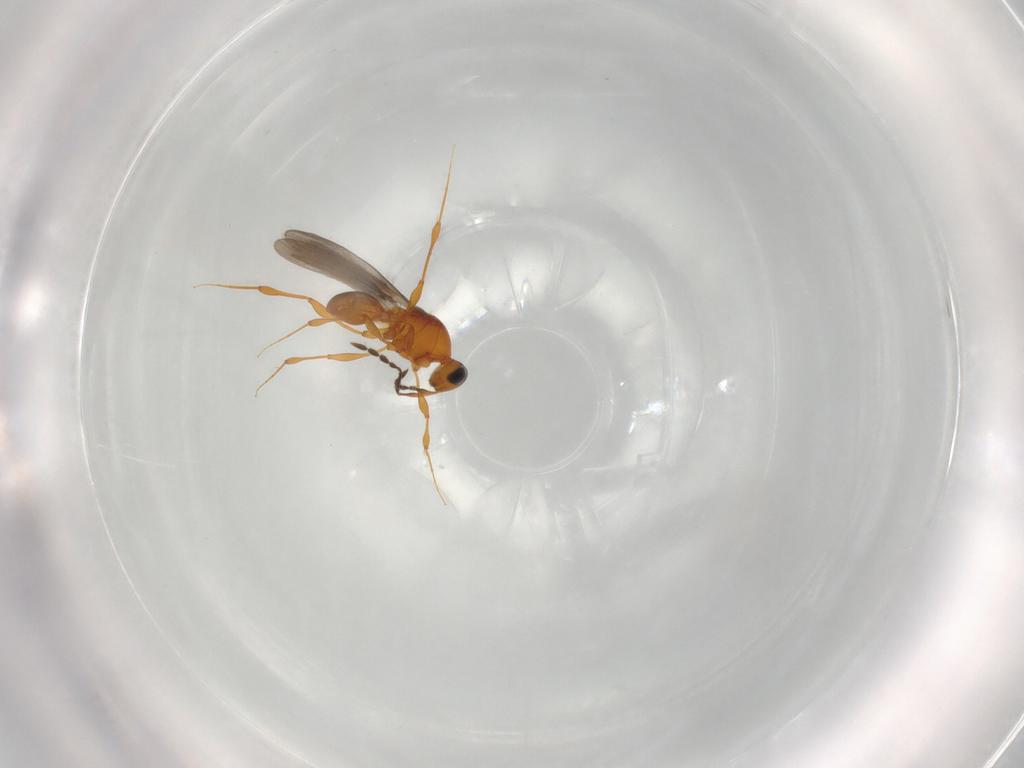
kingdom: Animalia
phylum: Arthropoda
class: Insecta
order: Hymenoptera
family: Platygastridae
